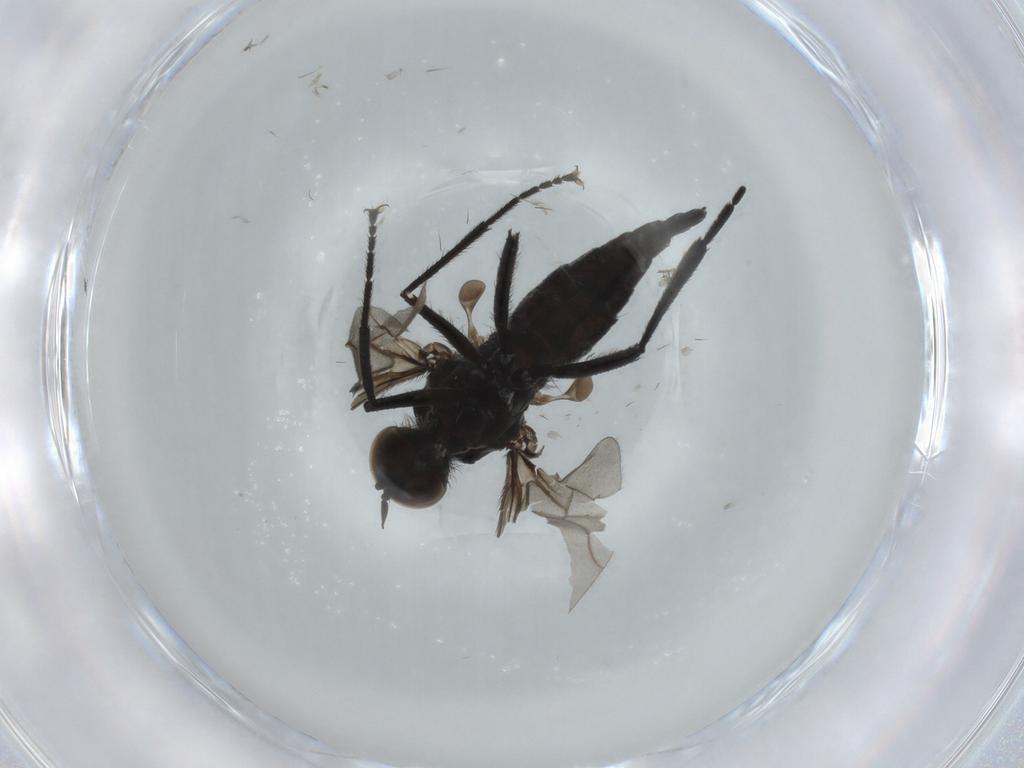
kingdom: Animalia
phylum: Arthropoda
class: Insecta
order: Diptera
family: Hybotidae
